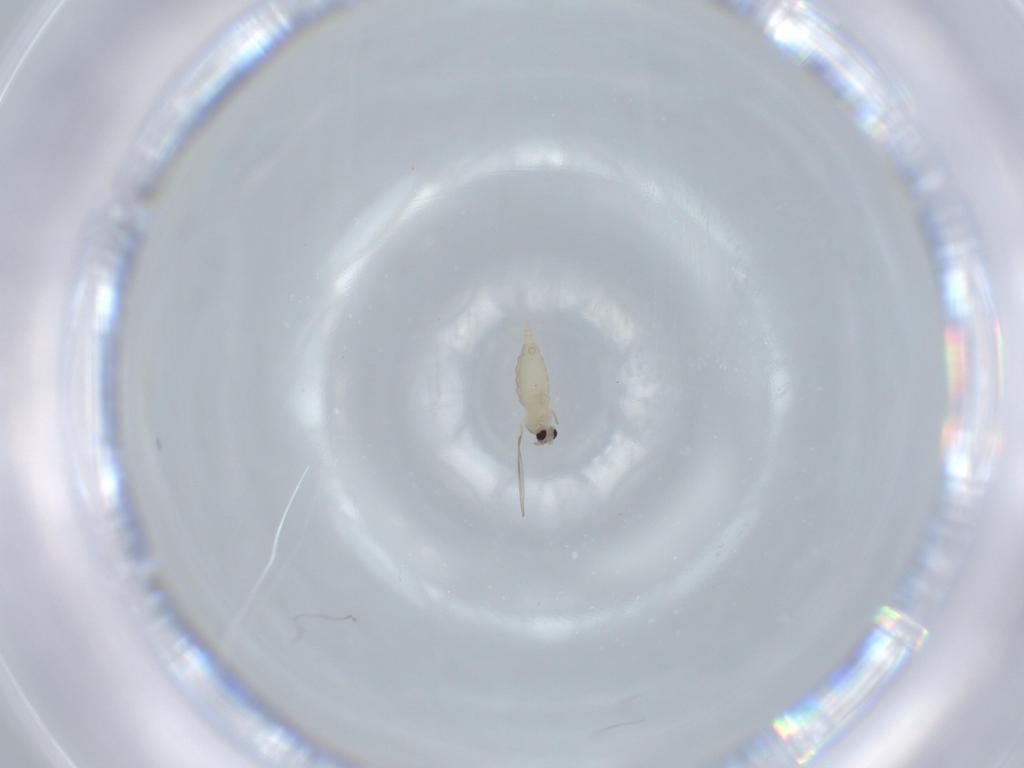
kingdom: Animalia
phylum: Arthropoda
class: Insecta
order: Diptera
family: Cecidomyiidae
